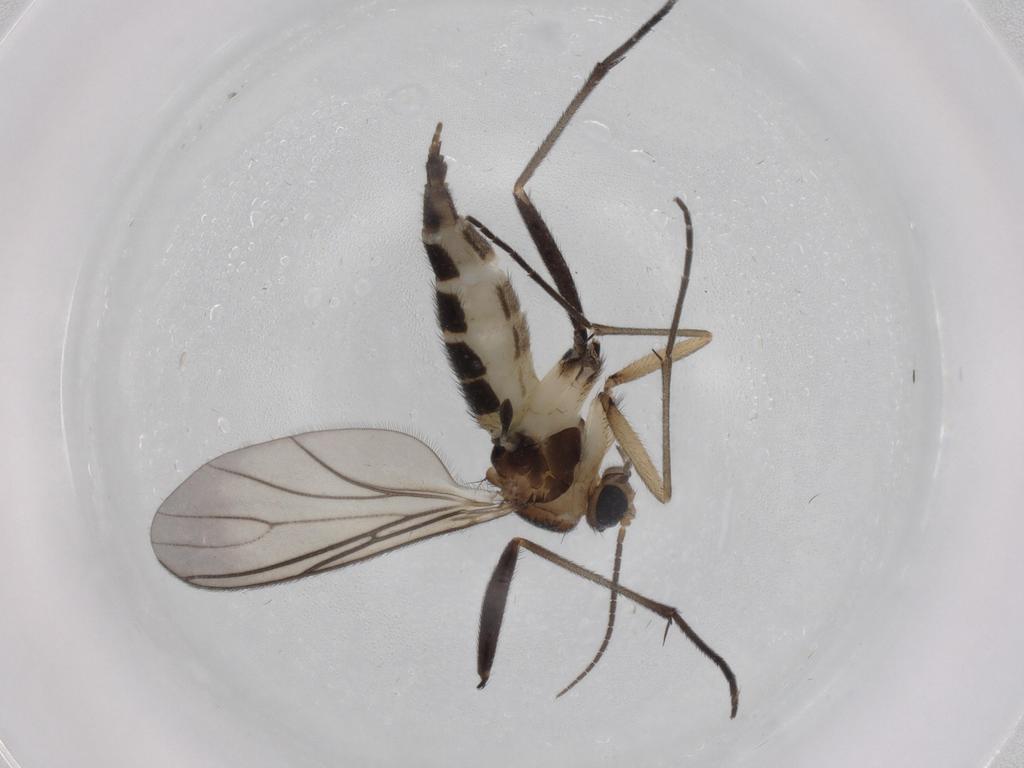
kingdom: Animalia
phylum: Arthropoda
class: Insecta
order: Diptera
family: Sciaridae
